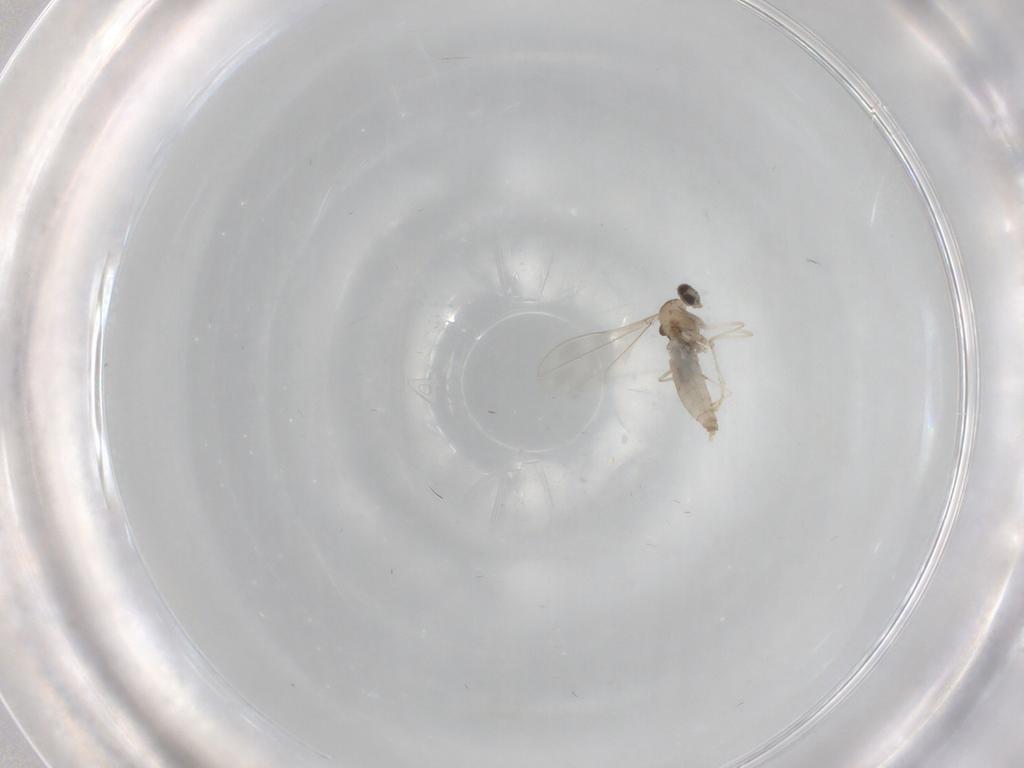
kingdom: Animalia
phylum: Arthropoda
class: Insecta
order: Diptera
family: Cecidomyiidae
